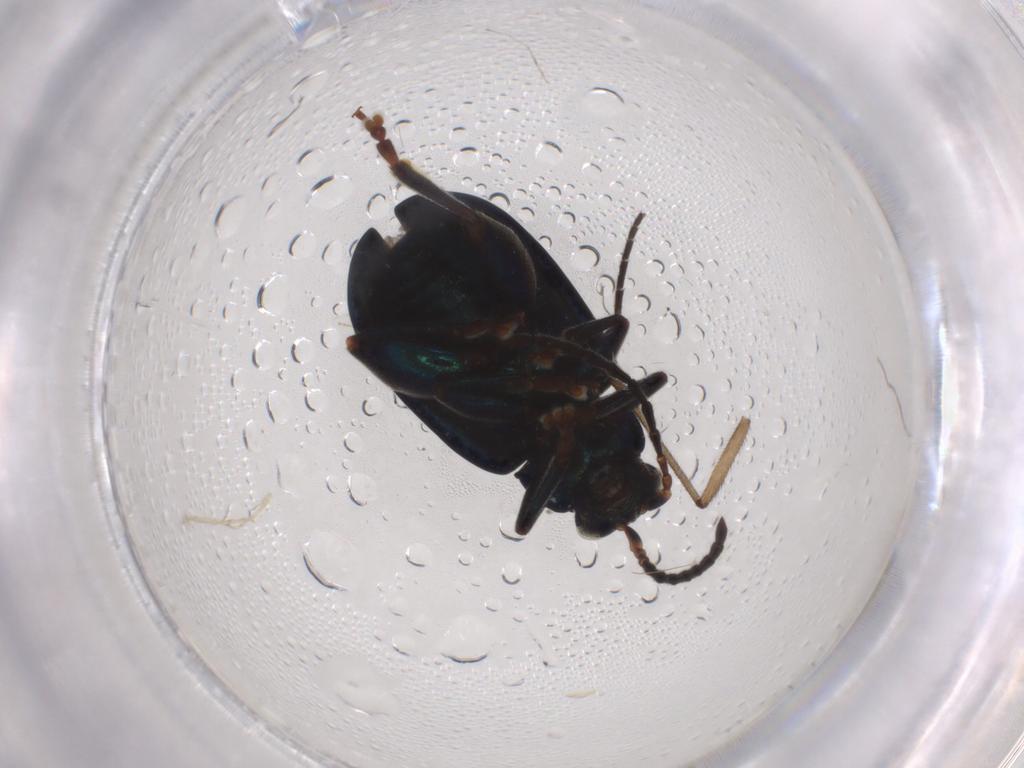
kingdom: Animalia
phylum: Arthropoda
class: Insecta
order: Coleoptera
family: Chrysomelidae
